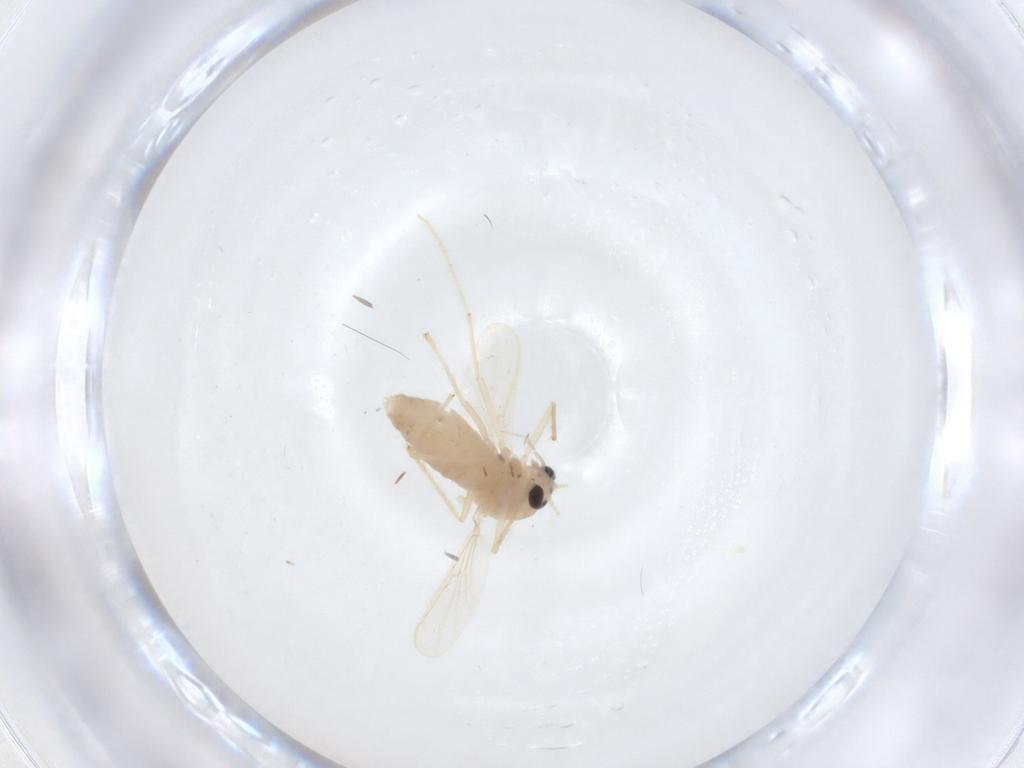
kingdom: Animalia
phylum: Arthropoda
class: Insecta
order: Diptera
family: Chironomidae
